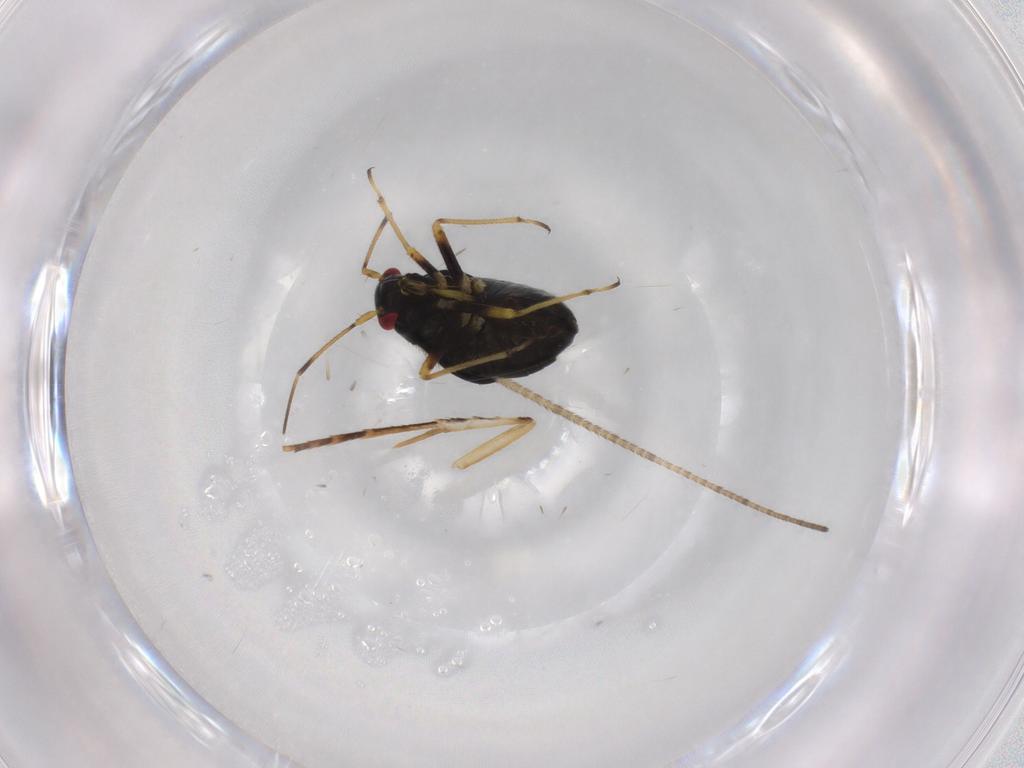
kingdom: Animalia
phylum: Arthropoda
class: Insecta
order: Hemiptera
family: Miridae
